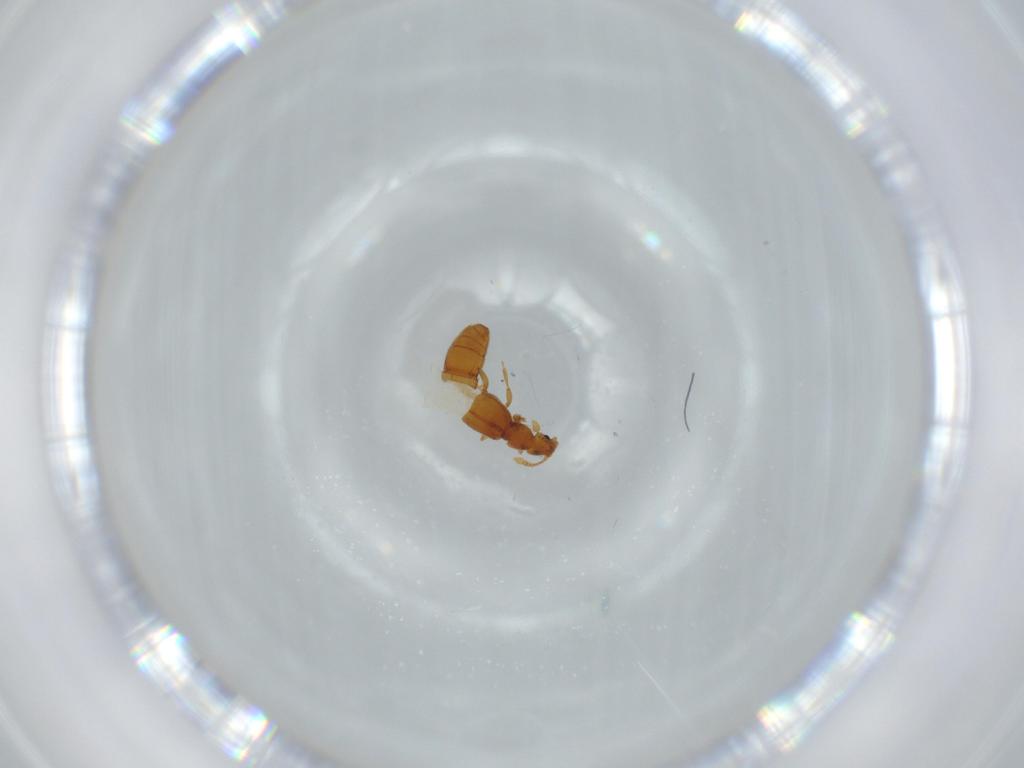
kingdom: Animalia
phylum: Arthropoda
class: Insecta
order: Coleoptera
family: Staphylinidae
